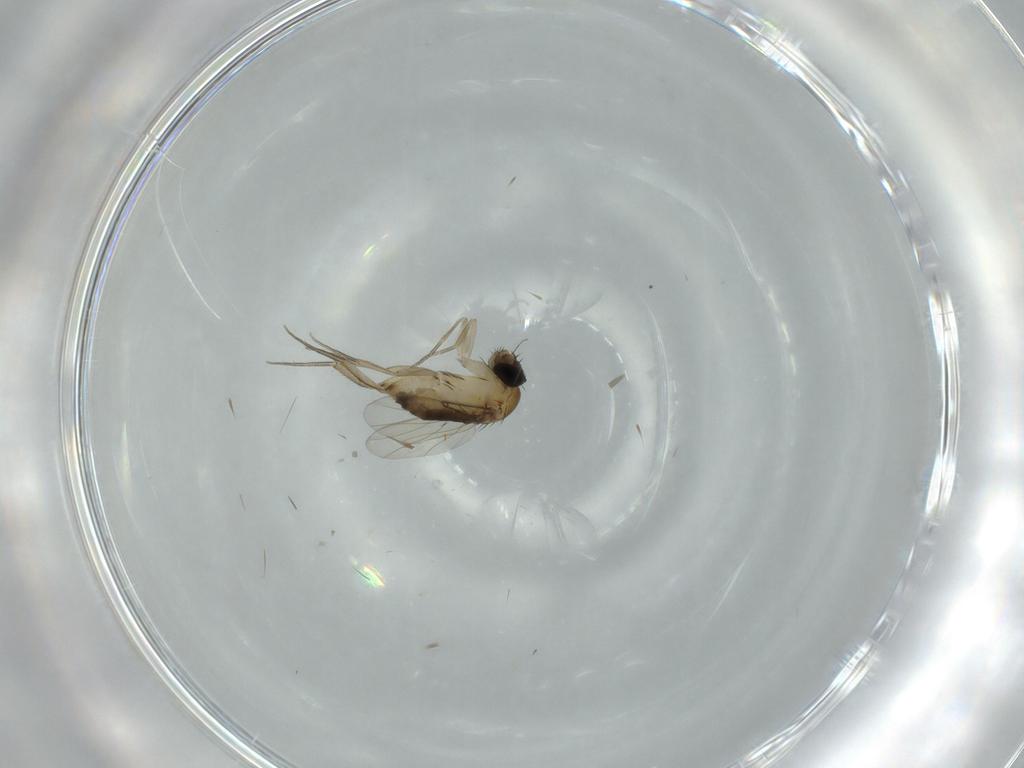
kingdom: Animalia
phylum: Arthropoda
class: Insecta
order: Diptera
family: Phoridae
